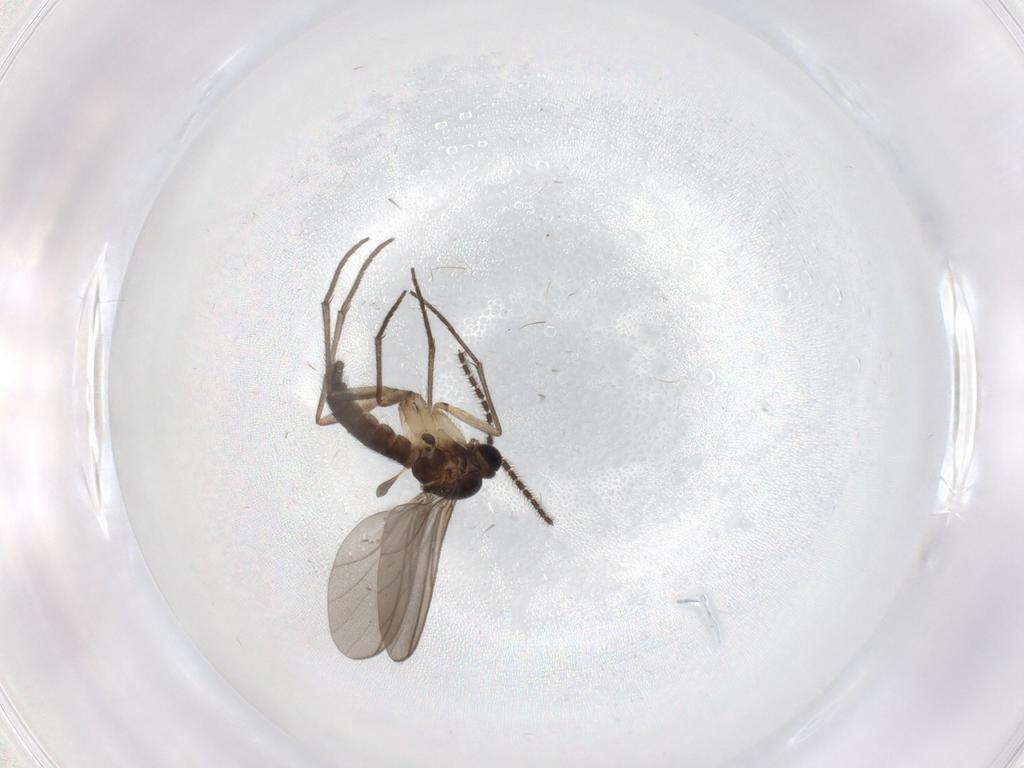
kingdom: Animalia
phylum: Arthropoda
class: Insecta
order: Diptera
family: Sciaridae
